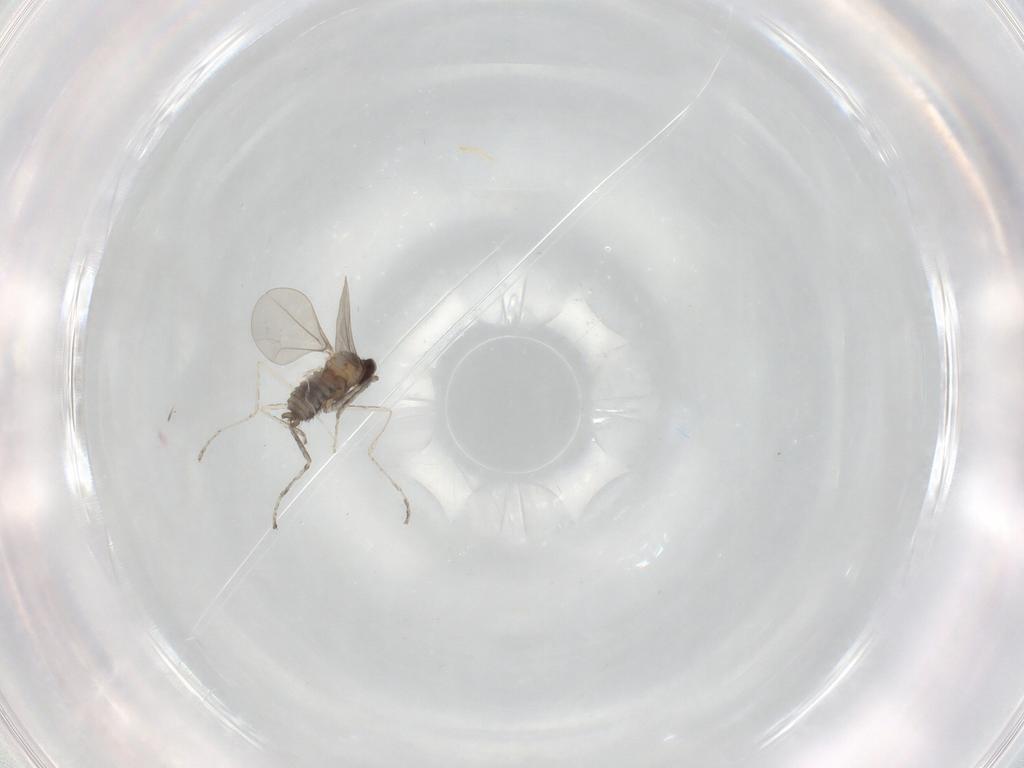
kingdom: Animalia
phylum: Arthropoda
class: Insecta
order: Diptera
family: Cecidomyiidae
